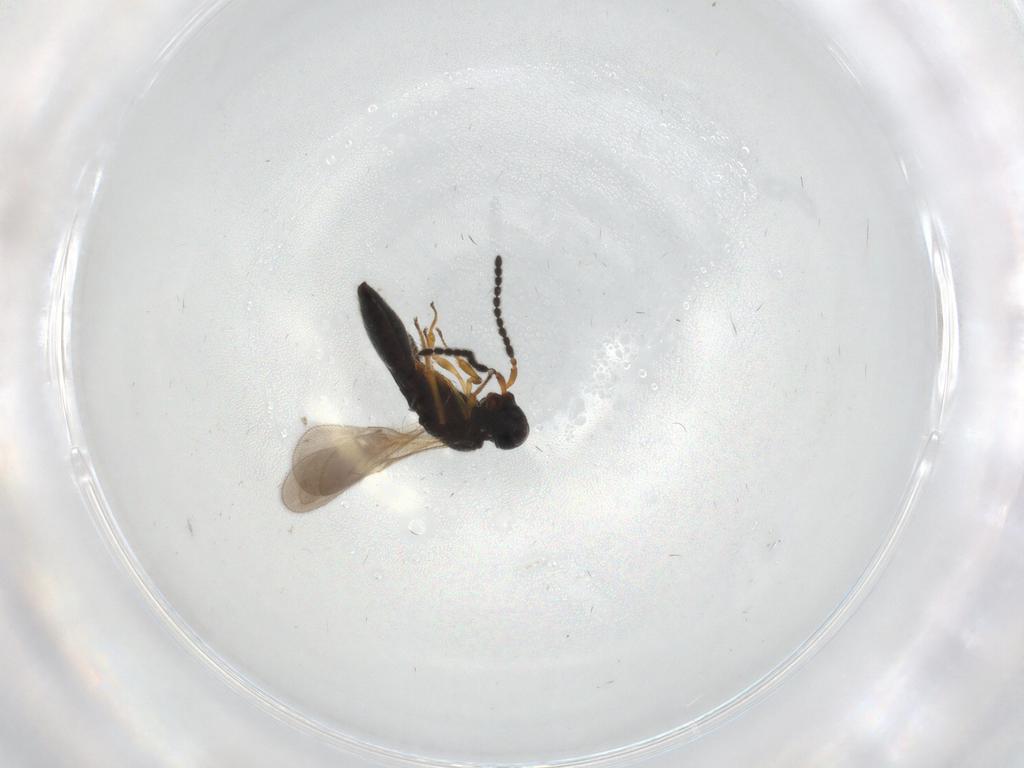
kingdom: Animalia
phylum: Arthropoda
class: Insecta
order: Hymenoptera
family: Scelionidae
